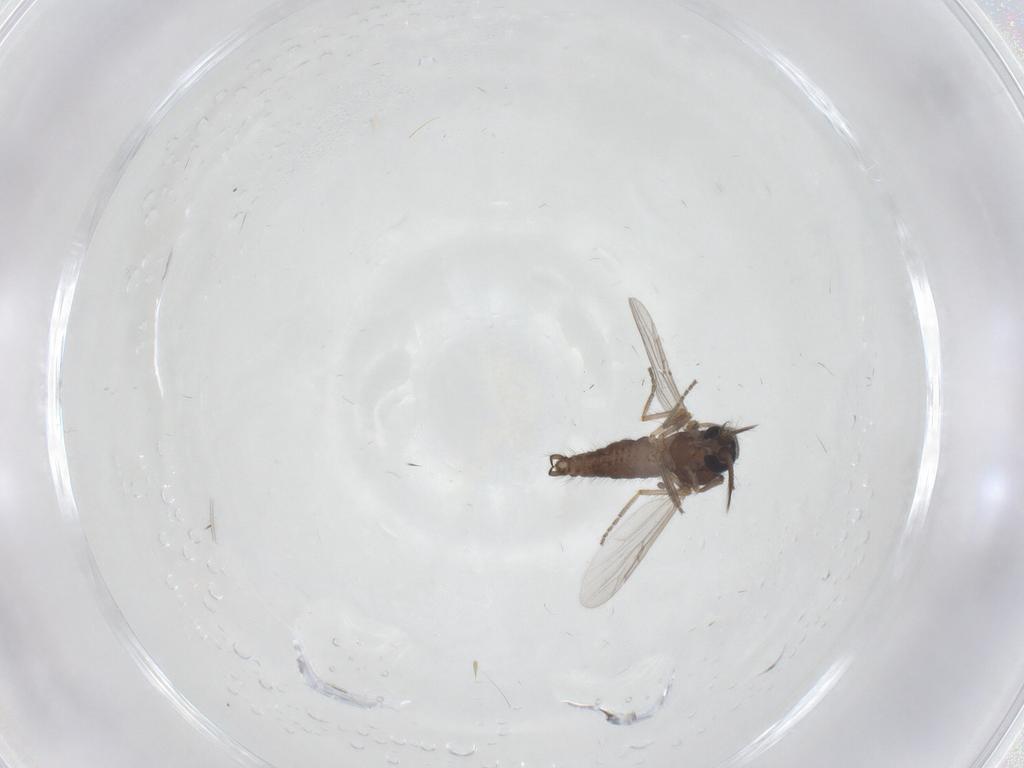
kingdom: Animalia
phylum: Arthropoda
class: Insecta
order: Diptera
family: Ceratopogonidae
